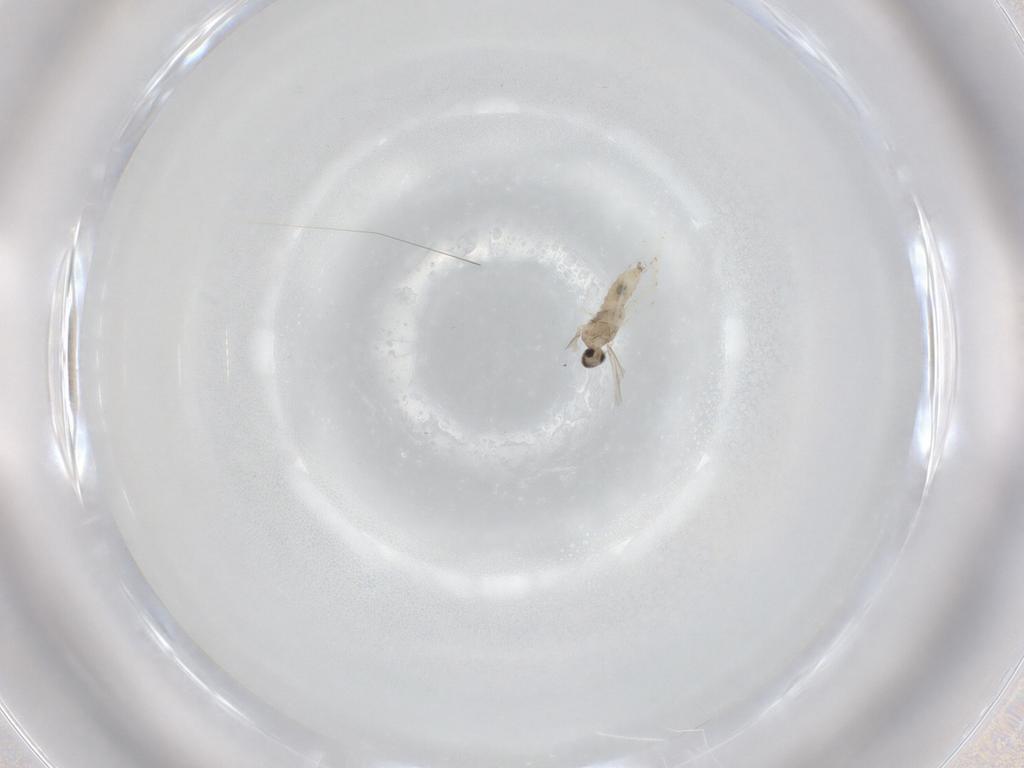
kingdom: Animalia
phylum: Arthropoda
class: Insecta
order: Diptera
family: Cecidomyiidae
